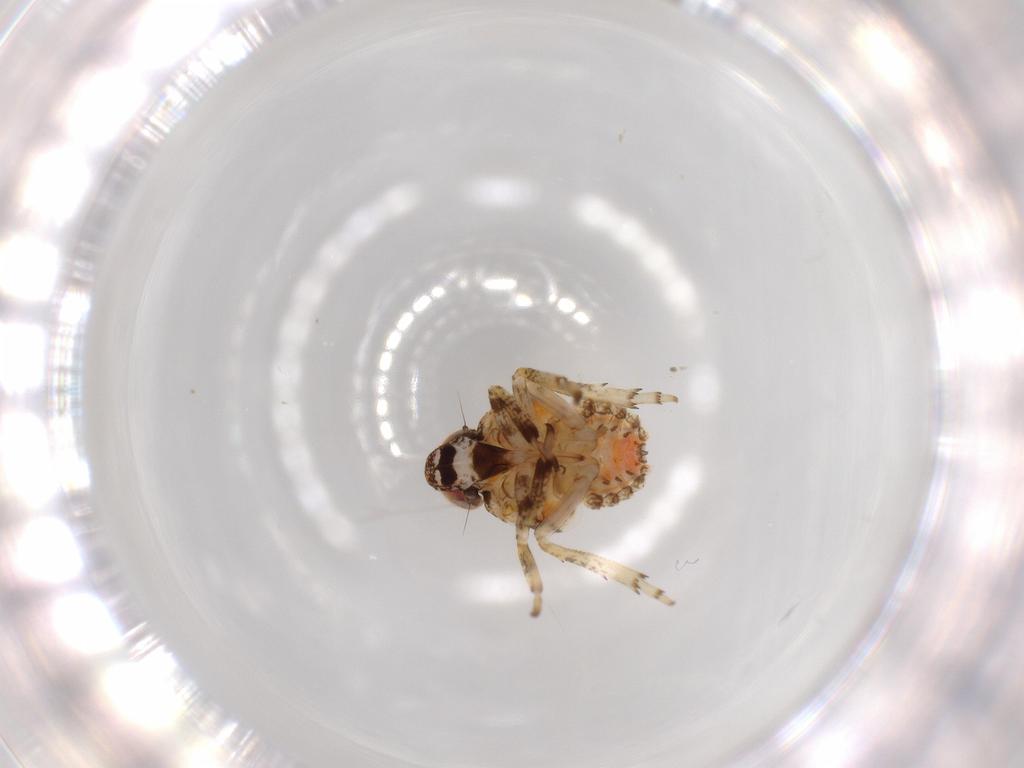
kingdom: Animalia
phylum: Arthropoda
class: Insecta
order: Hemiptera
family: Issidae
